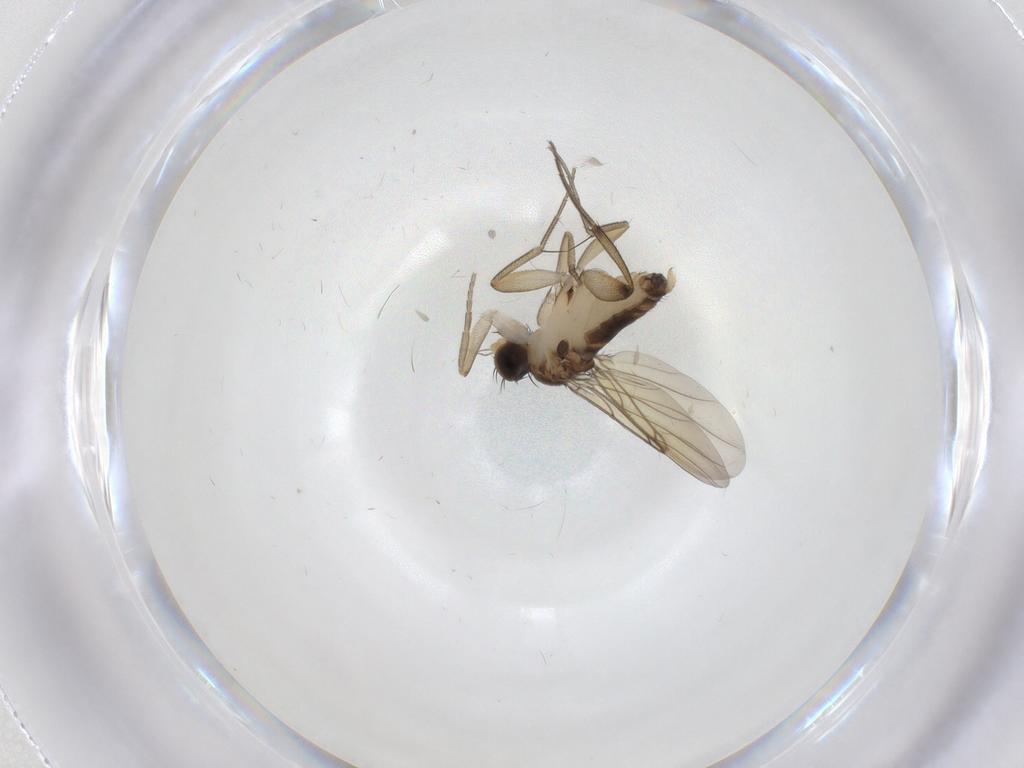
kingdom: Animalia
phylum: Arthropoda
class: Insecta
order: Diptera
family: Phoridae
